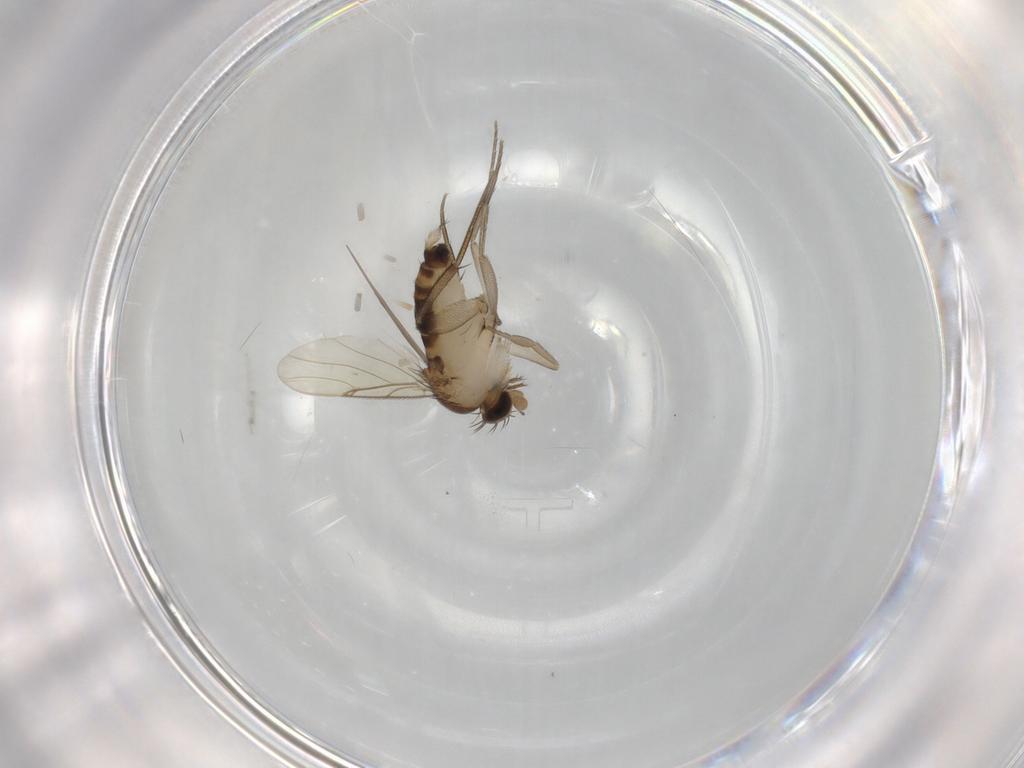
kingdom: Animalia
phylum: Arthropoda
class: Insecta
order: Diptera
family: Phoridae
